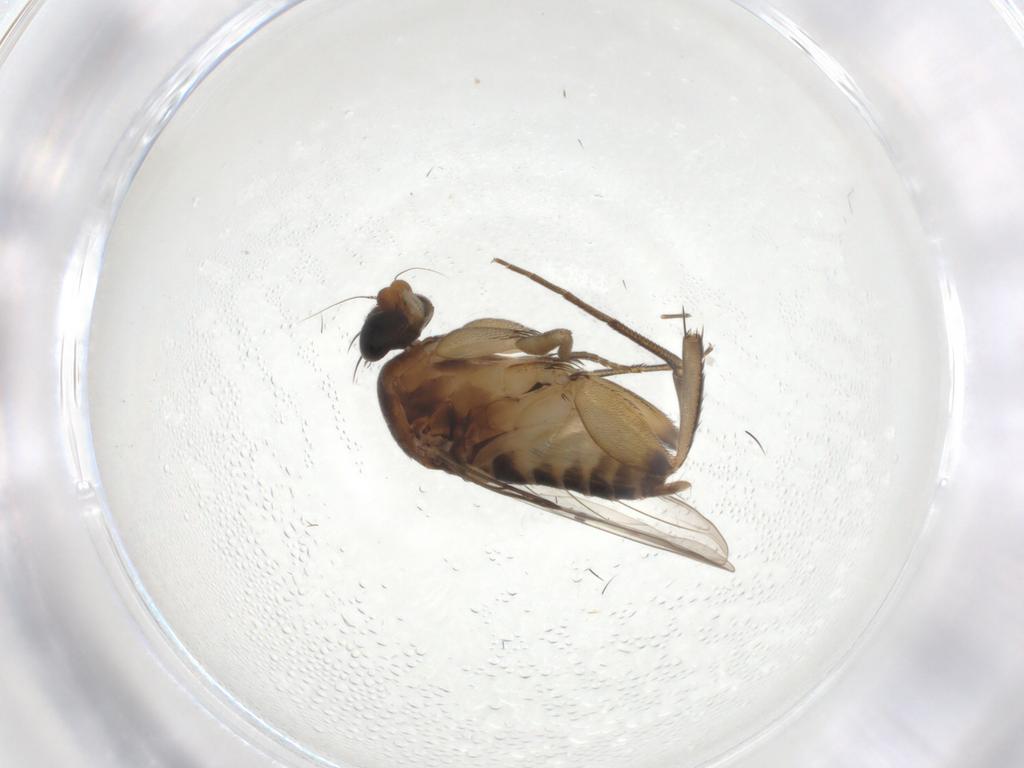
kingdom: Animalia
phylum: Arthropoda
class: Insecta
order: Diptera
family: Phoridae
